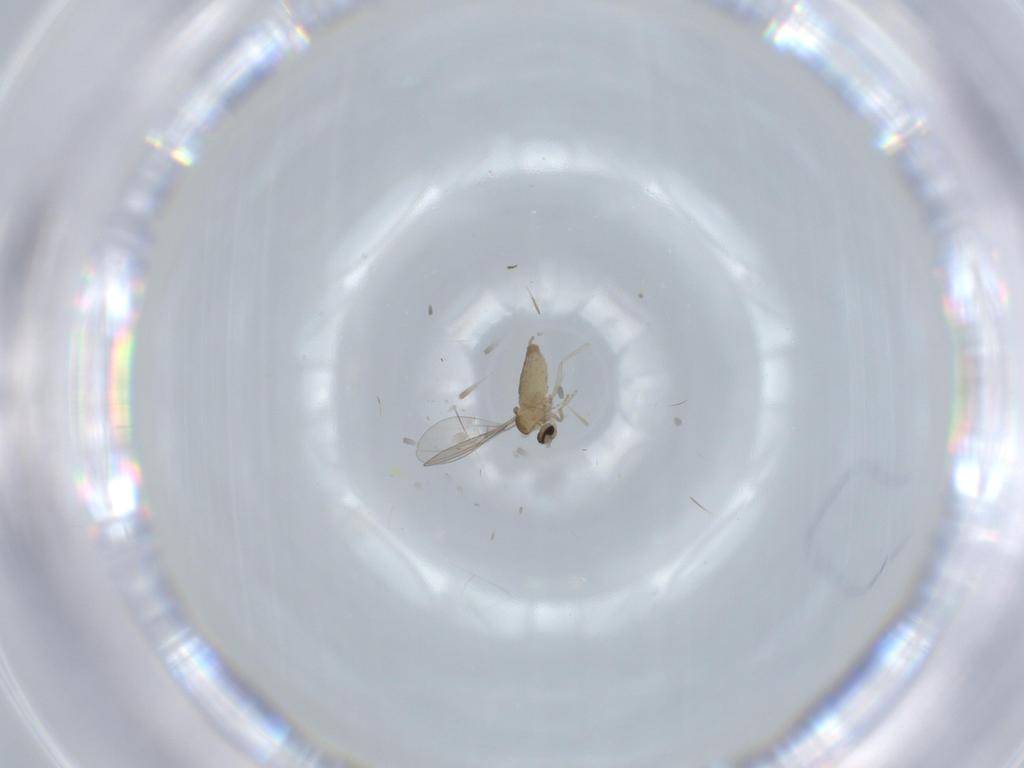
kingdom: Animalia
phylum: Arthropoda
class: Insecta
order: Diptera
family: Cecidomyiidae
